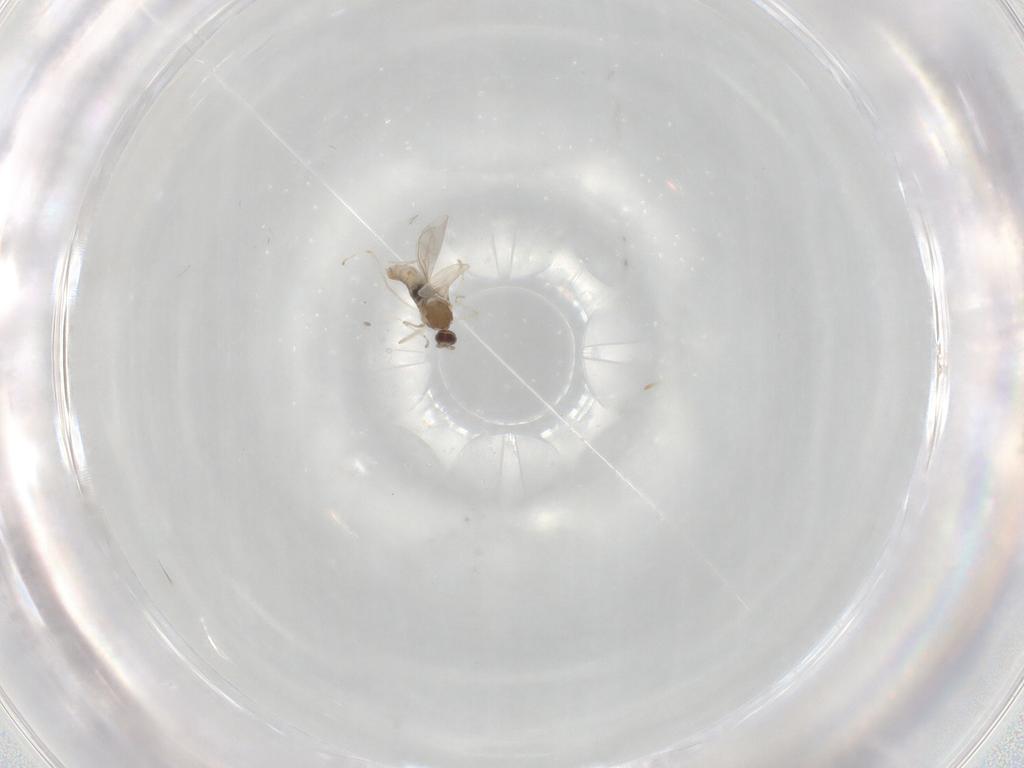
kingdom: Animalia
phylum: Arthropoda
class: Insecta
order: Diptera
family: Cecidomyiidae
